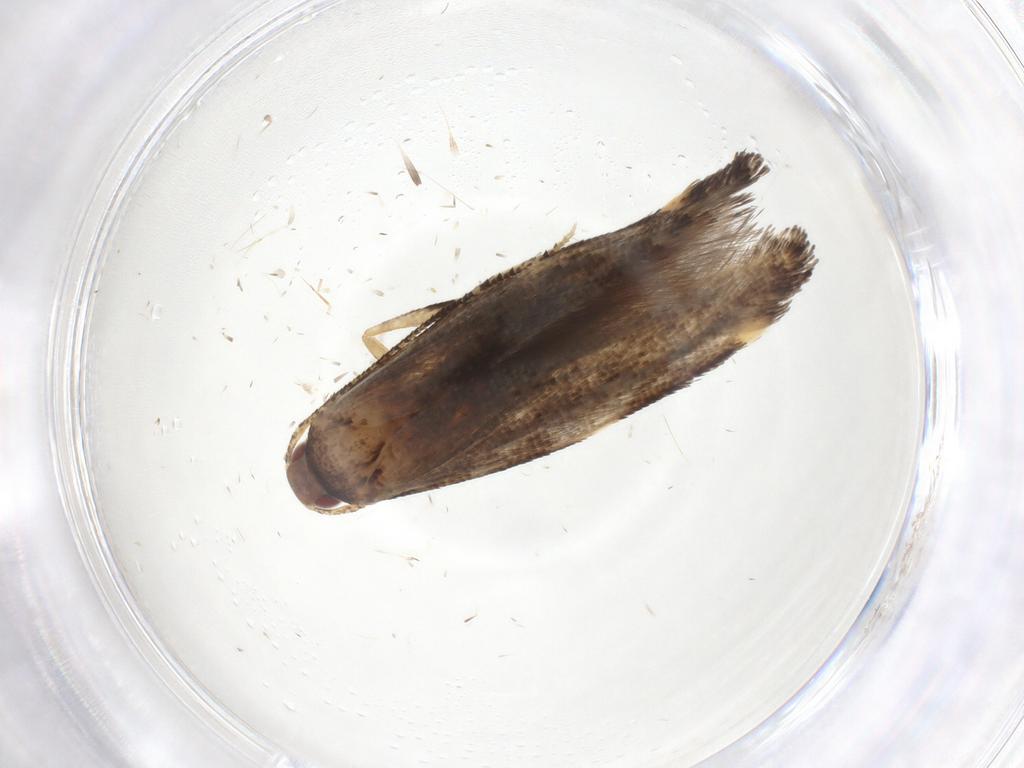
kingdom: Animalia
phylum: Arthropoda
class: Insecta
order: Lepidoptera
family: Momphidae
